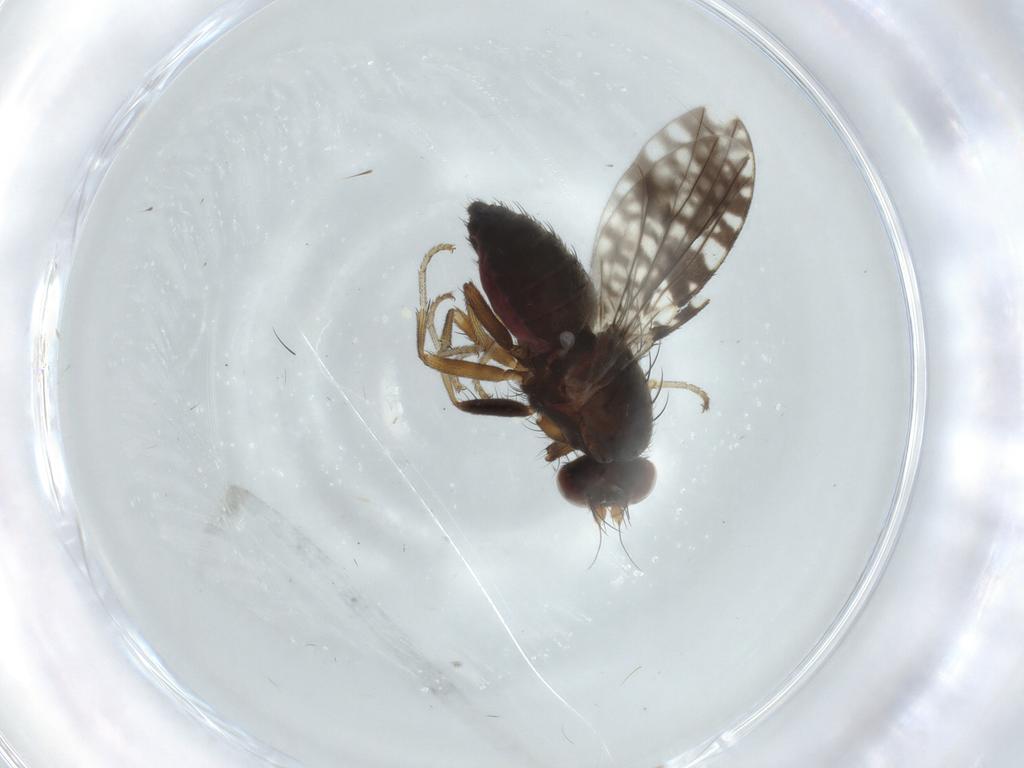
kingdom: Animalia
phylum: Arthropoda
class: Insecta
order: Diptera
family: Tephritidae
